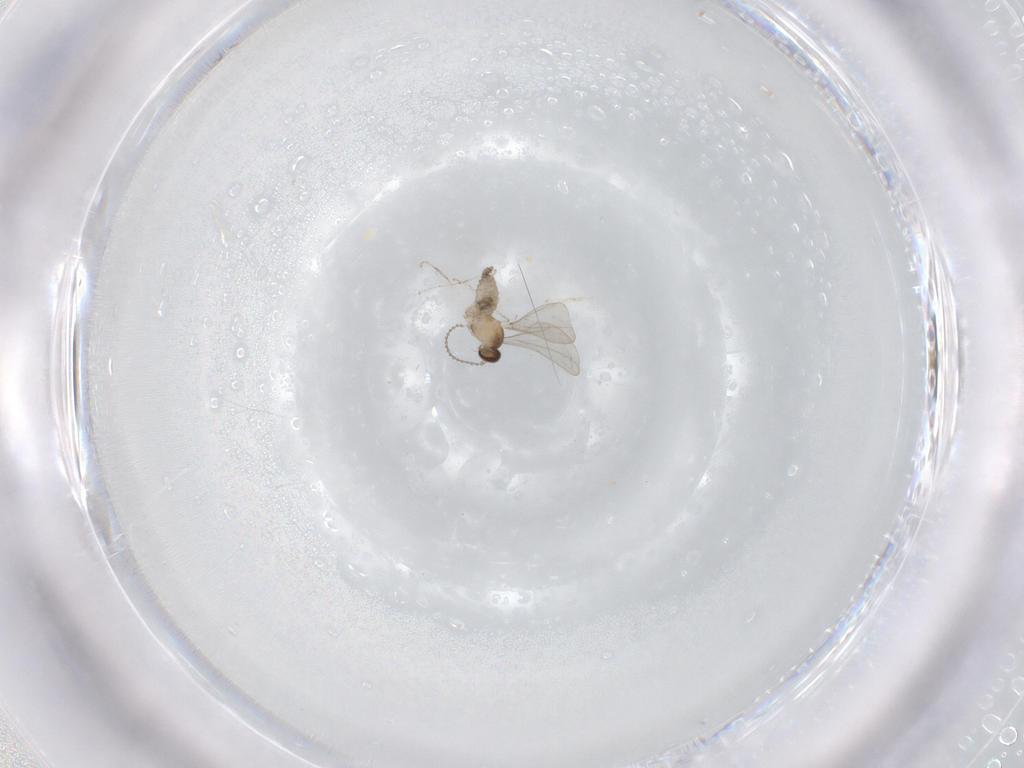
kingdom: Animalia
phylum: Arthropoda
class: Insecta
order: Diptera
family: Cecidomyiidae
